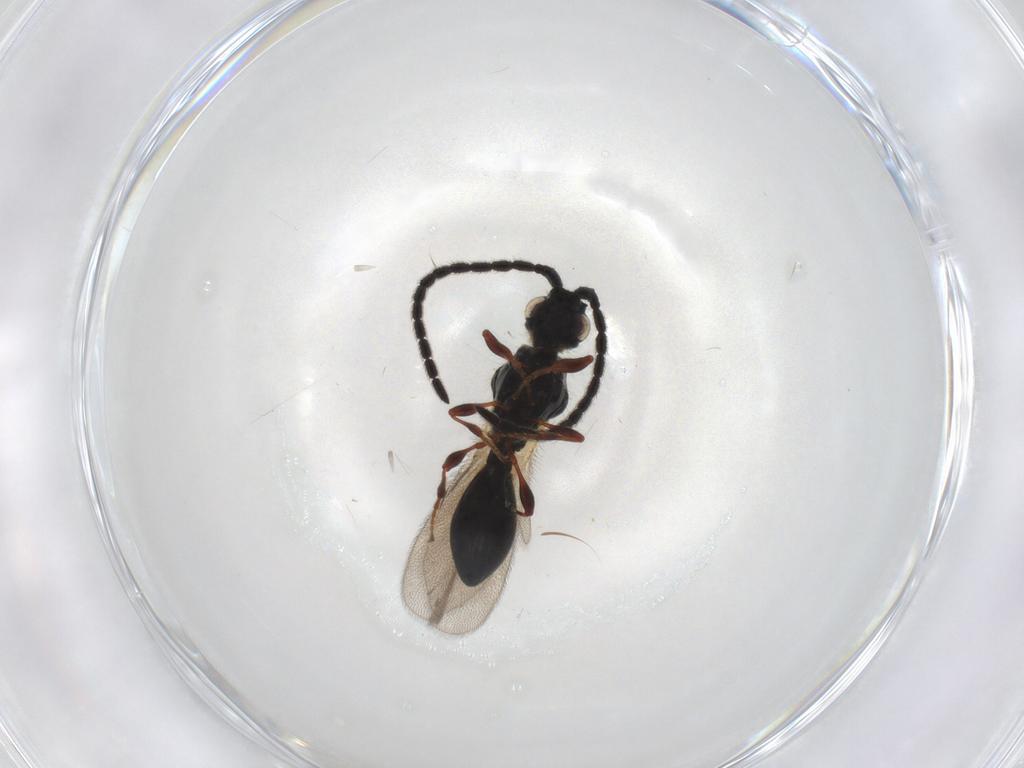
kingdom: Animalia
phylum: Arthropoda
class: Insecta
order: Hymenoptera
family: Diapriidae
